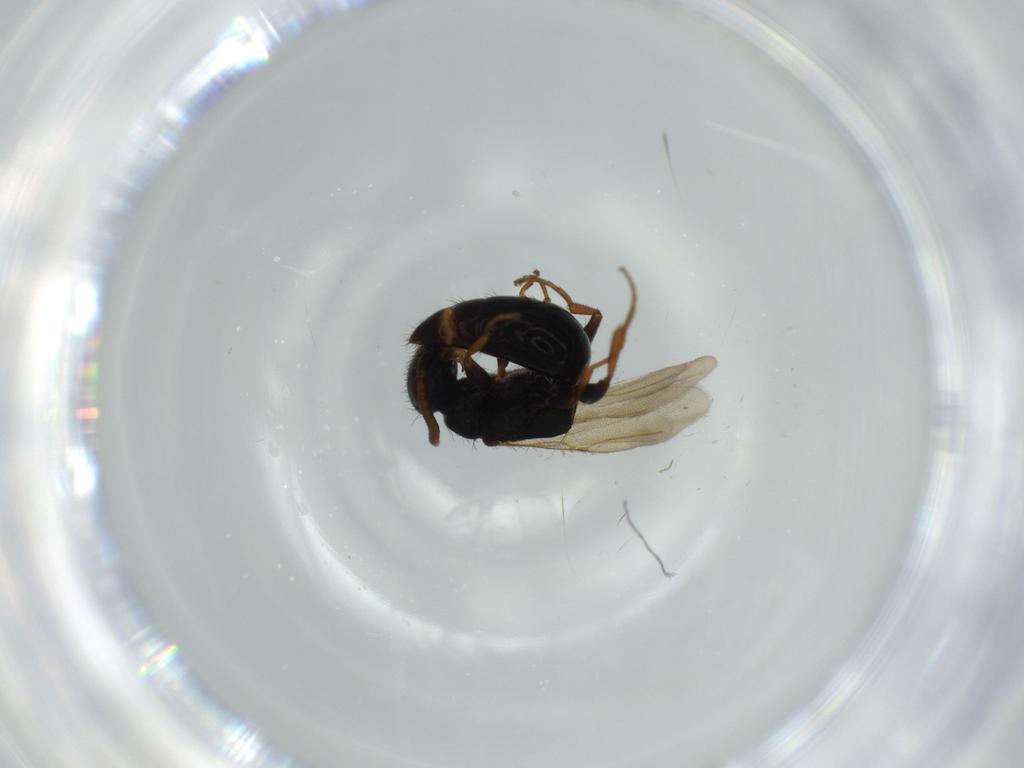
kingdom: Animalia
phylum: Arthropoda
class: Insecta
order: Hymenoptera
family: Bethylidae
